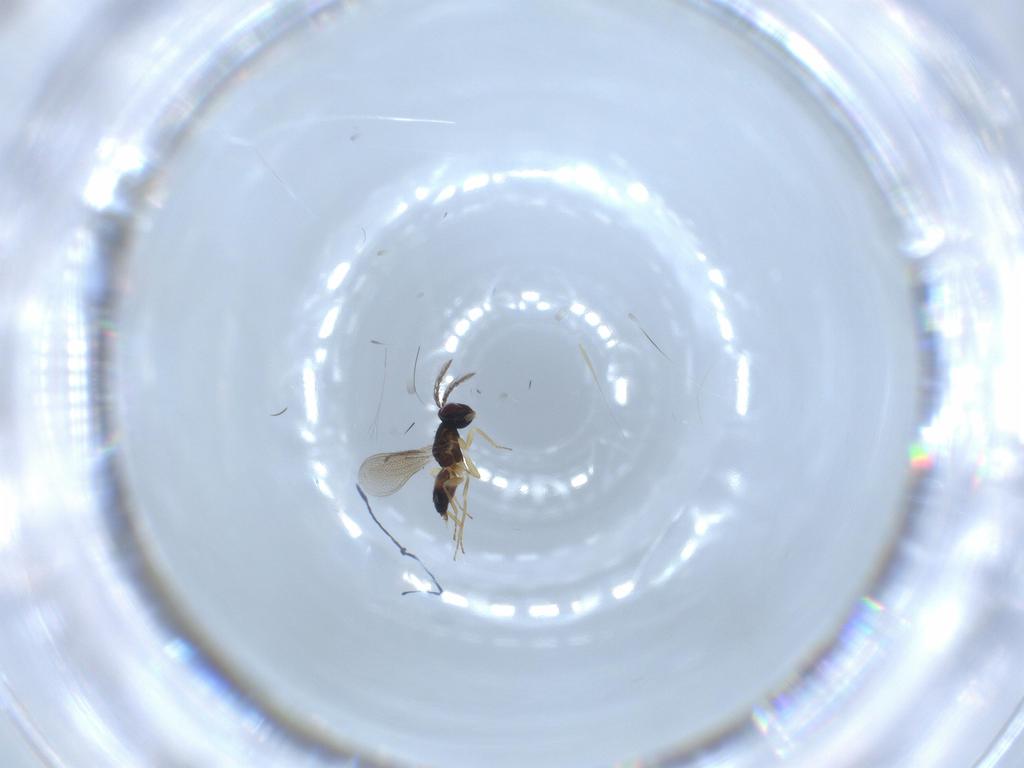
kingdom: Animalia
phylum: Arthropoda
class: Insecta
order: Hymenoptera
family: Eulophidae
